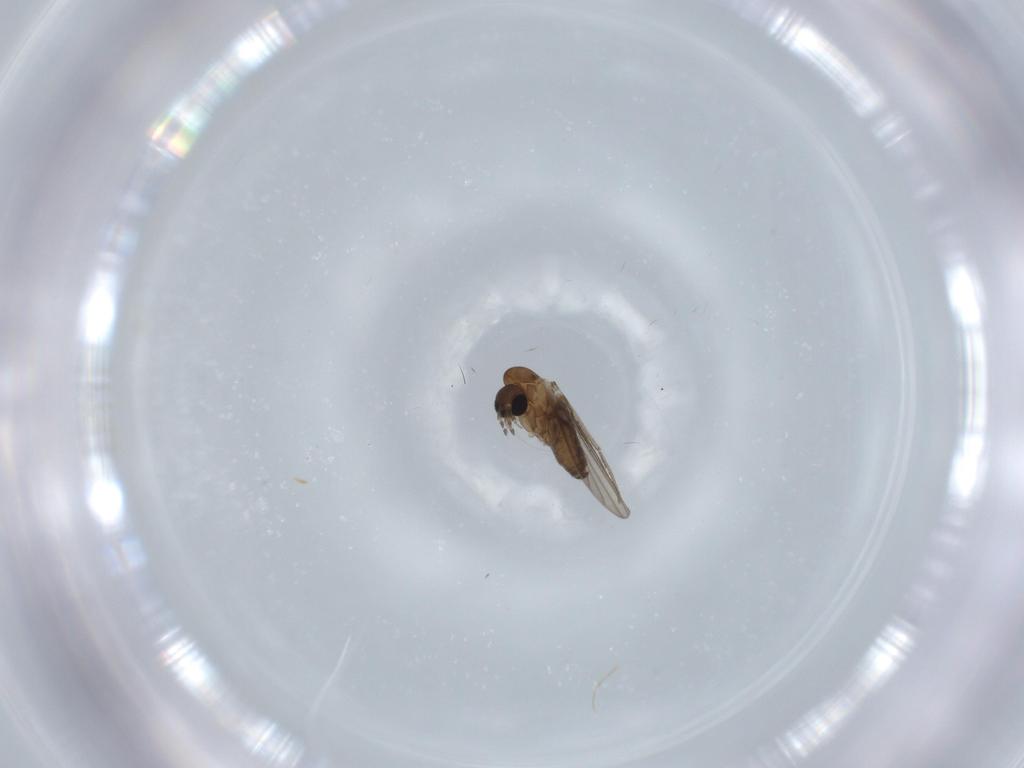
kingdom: Animalia
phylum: Arthropoda
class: Insecta
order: Diptera
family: Psychodidae
